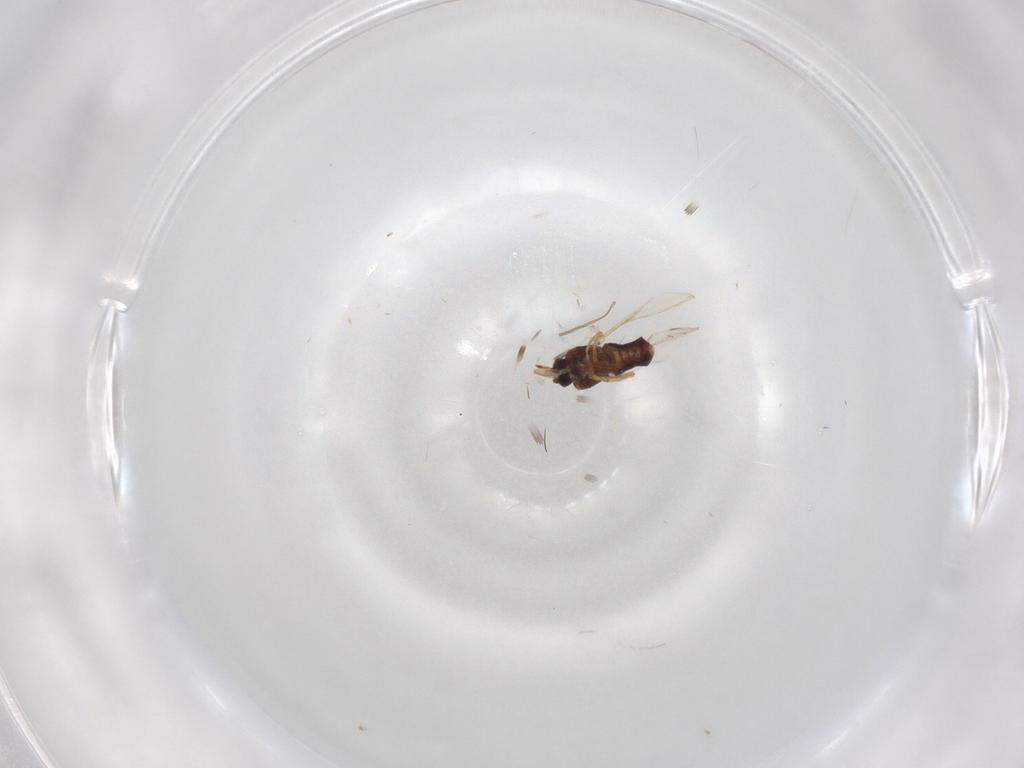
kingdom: Animalia
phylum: Arthropoda
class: Insecta
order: Diptera
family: Ceratopogonidae
